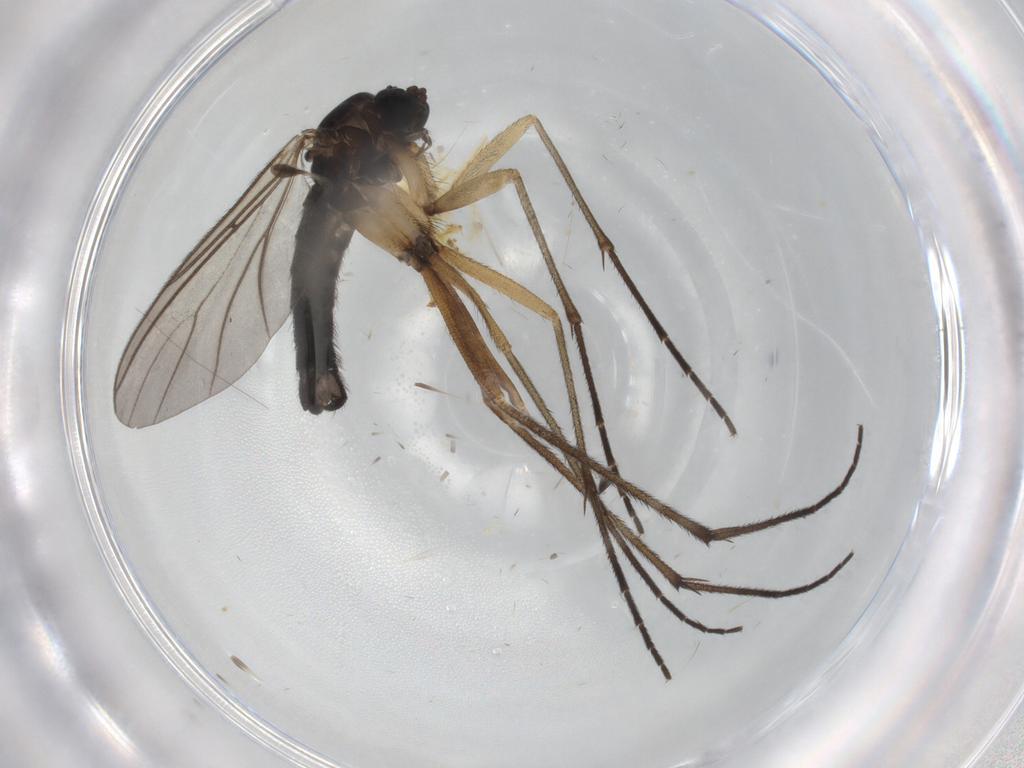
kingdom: Animalia
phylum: Arthropoda
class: Insecta
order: Diptera
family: Sciaridae
